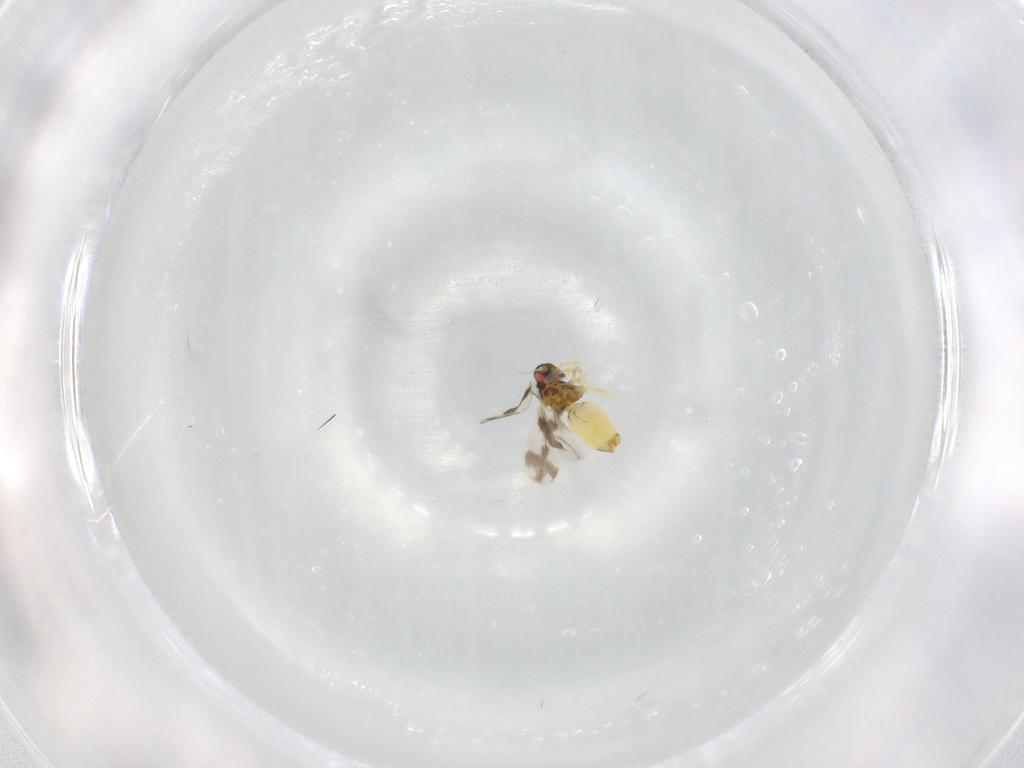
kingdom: Animalia
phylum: Arthropoda
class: Insecta
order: Hemiptera
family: Aleyrodidae
